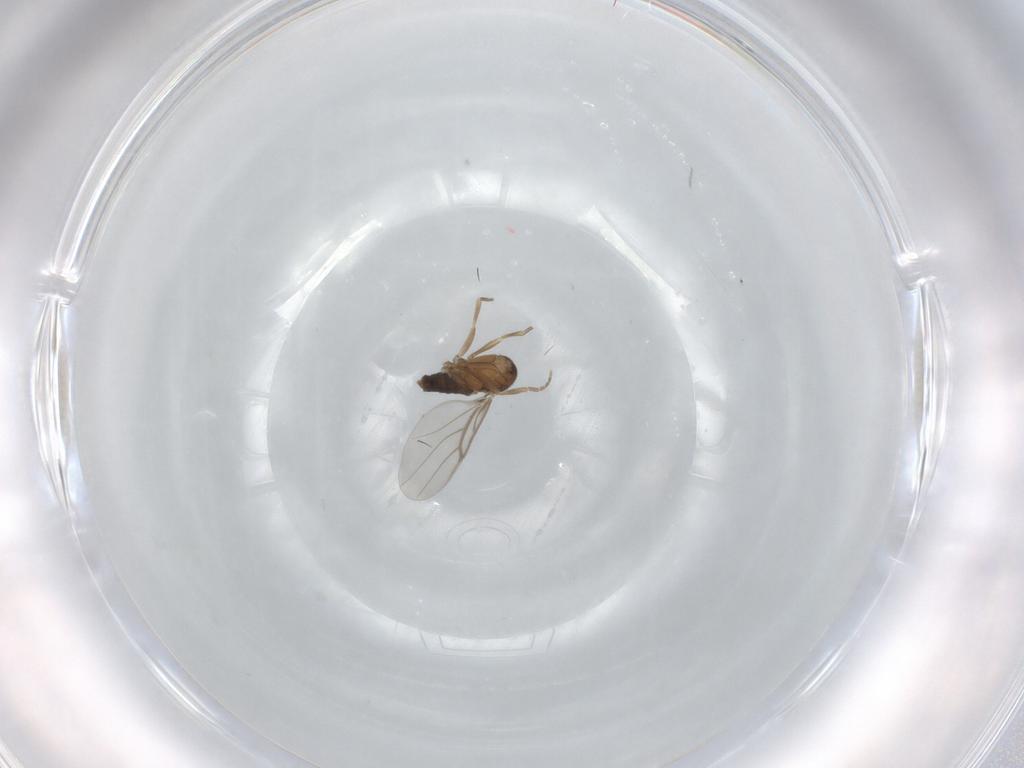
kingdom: Animalia
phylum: Arthropoda
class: Insecta
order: Diptera
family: Phoridae
